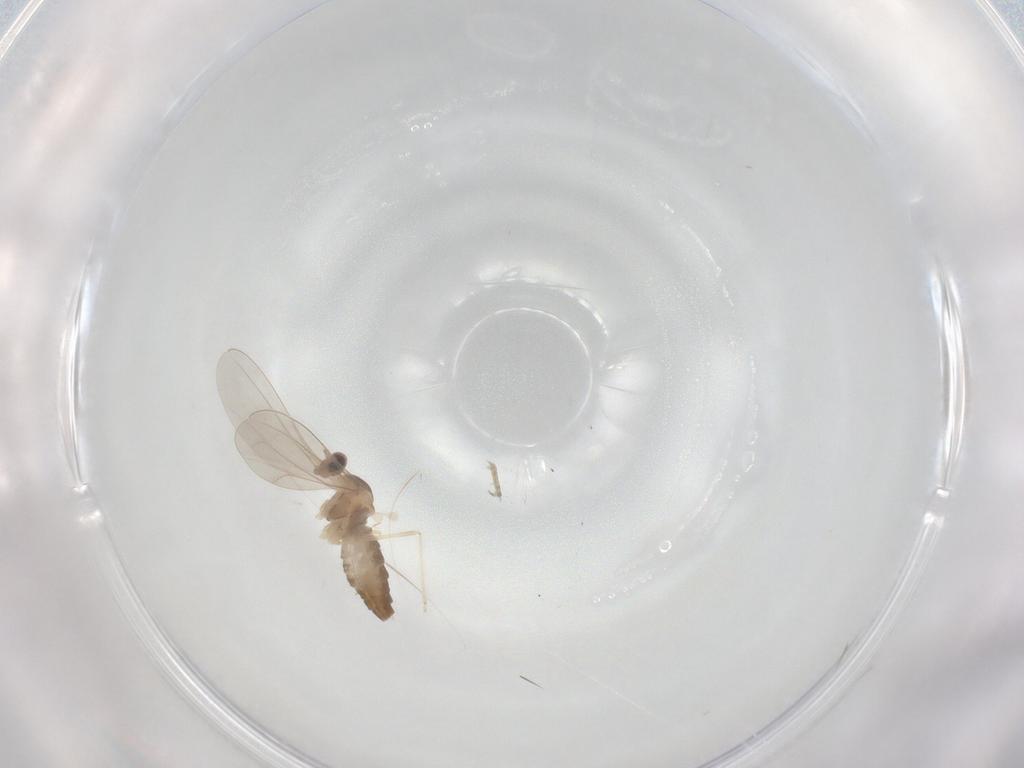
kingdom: Animalia
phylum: Arthropoda
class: Insecta
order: Diptera
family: Cecidomyiidae
